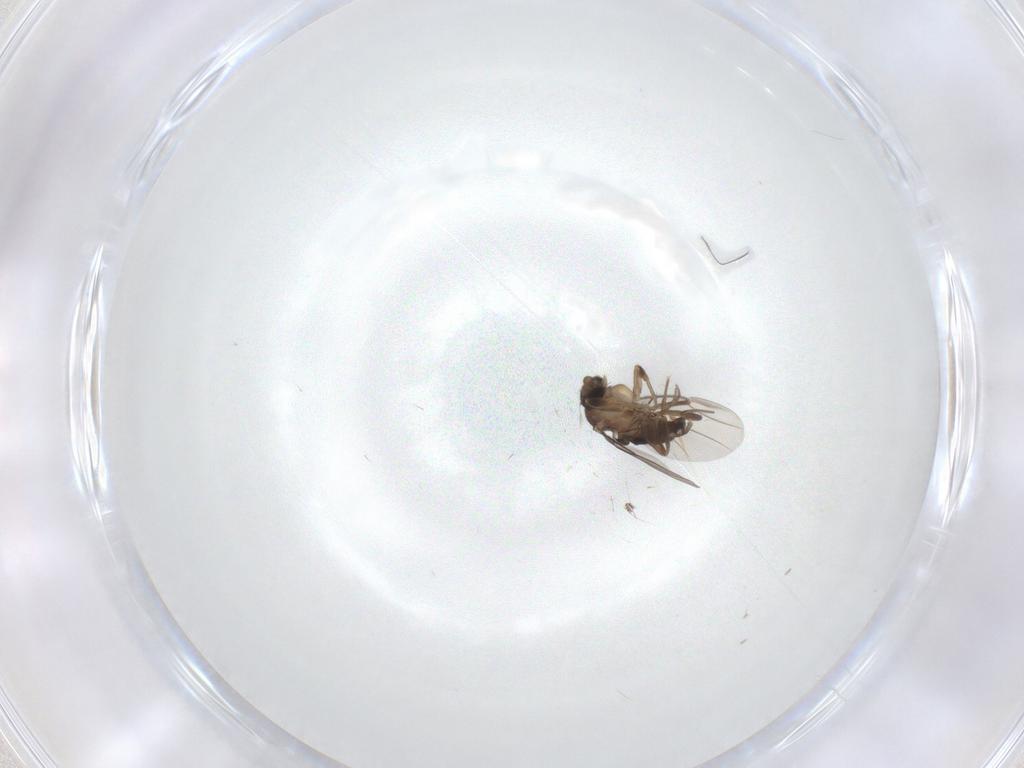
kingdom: Animalia
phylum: Arthropoda
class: Insecta
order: Diptera
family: Phoridae
